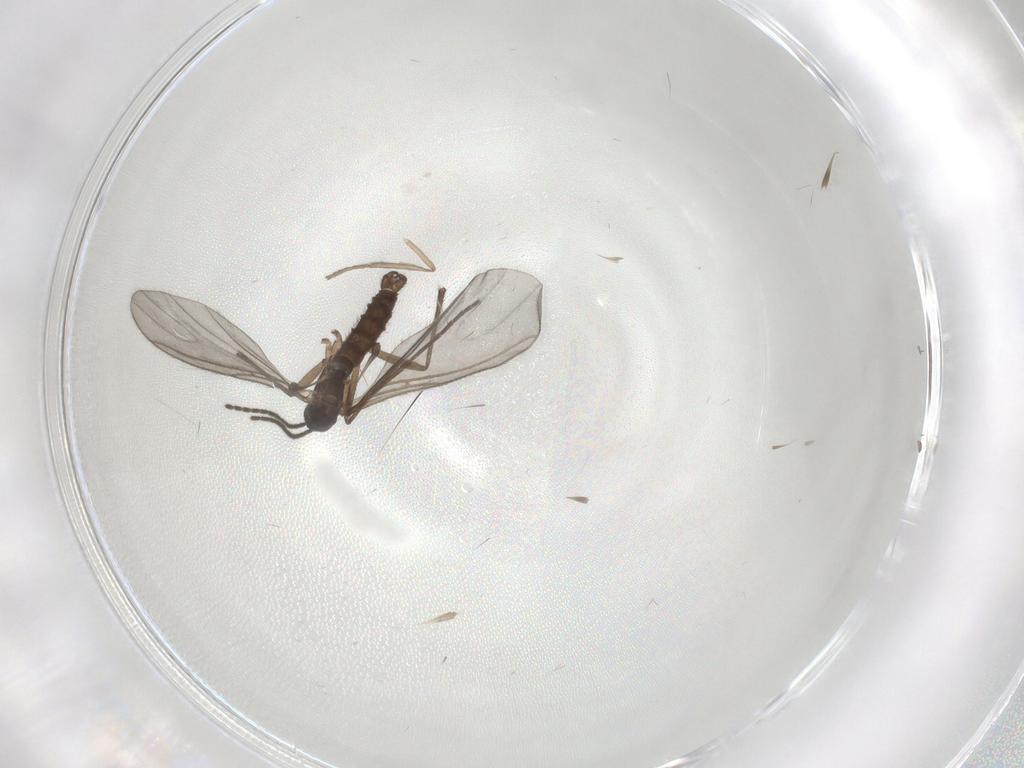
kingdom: Animalia
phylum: Arthropoda
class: Insecta
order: Diptera
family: Sciaridae
